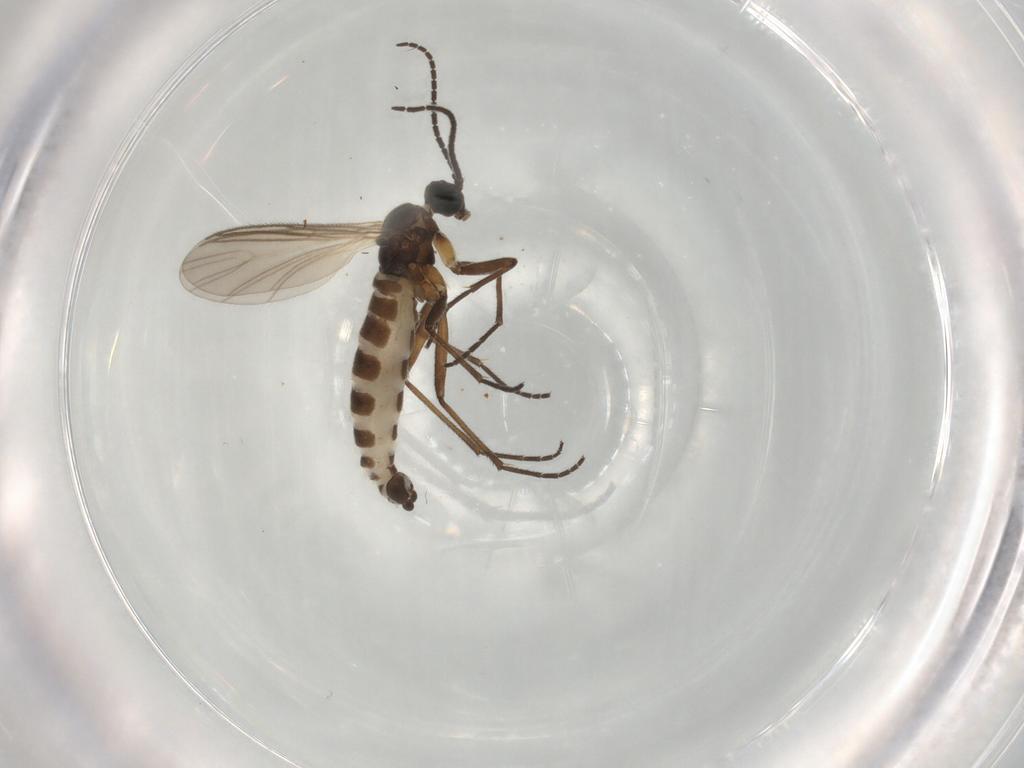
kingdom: Animalia
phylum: Arthropoda
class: Insecta
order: Diptera
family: Sciaridae
